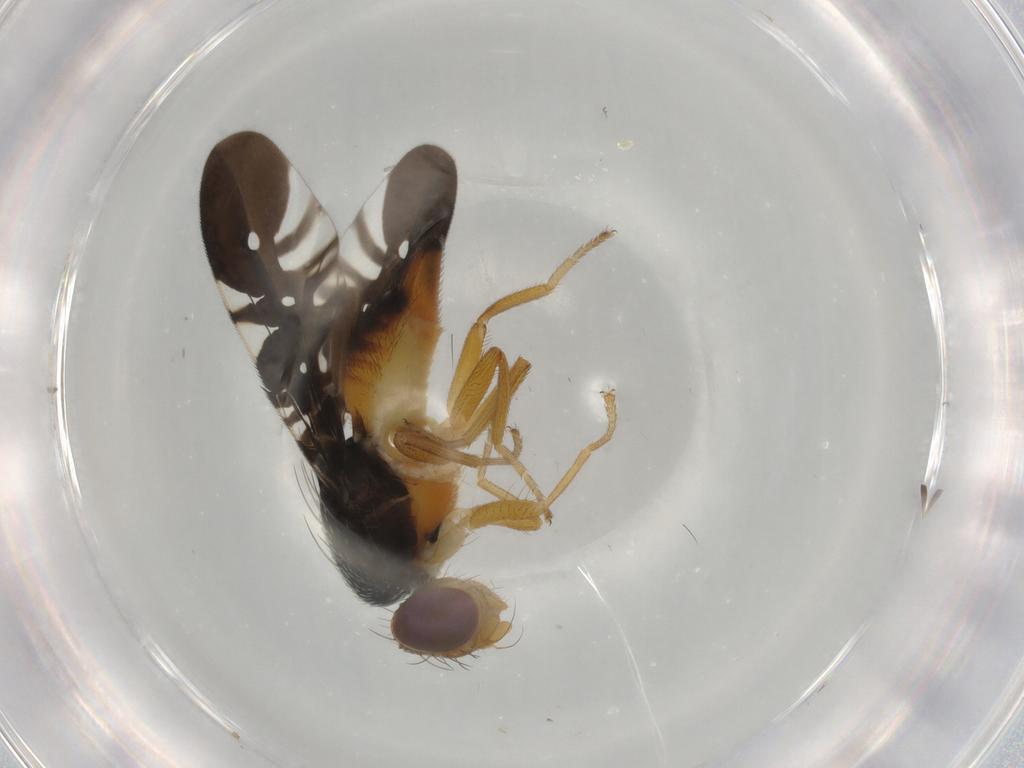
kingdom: Animalia
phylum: Arthropoda
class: Insecta
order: Diptera
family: Tephritidae
